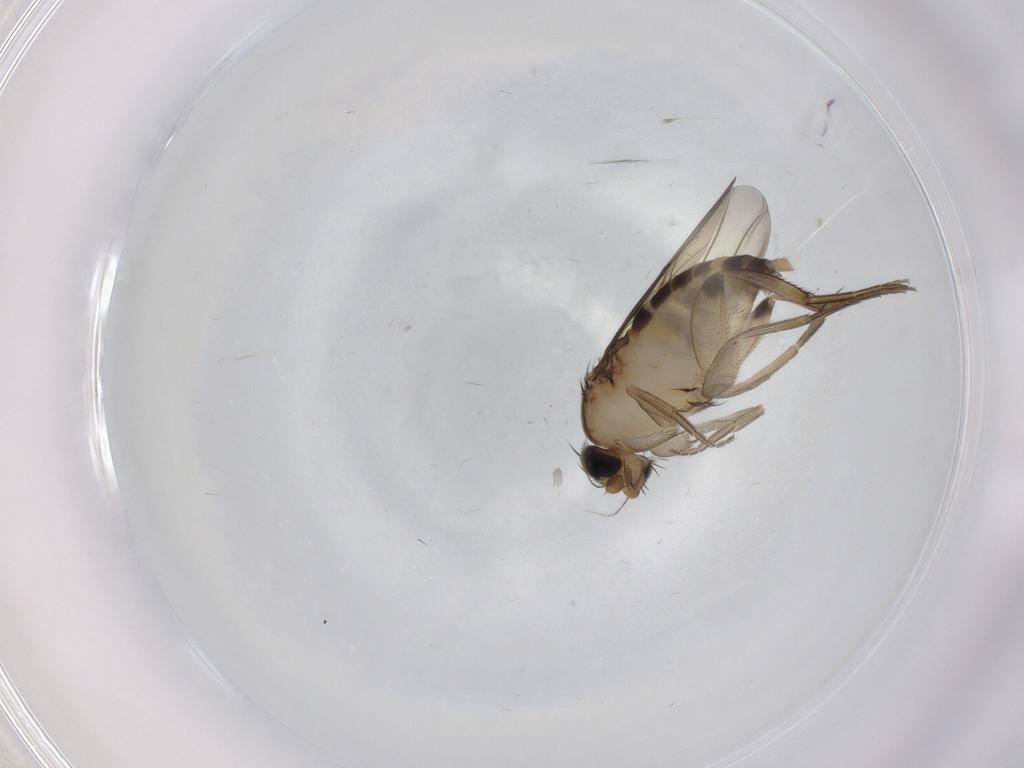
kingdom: Animalia
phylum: Arthropoda
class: Insecta
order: Diptera
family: Phoridae
